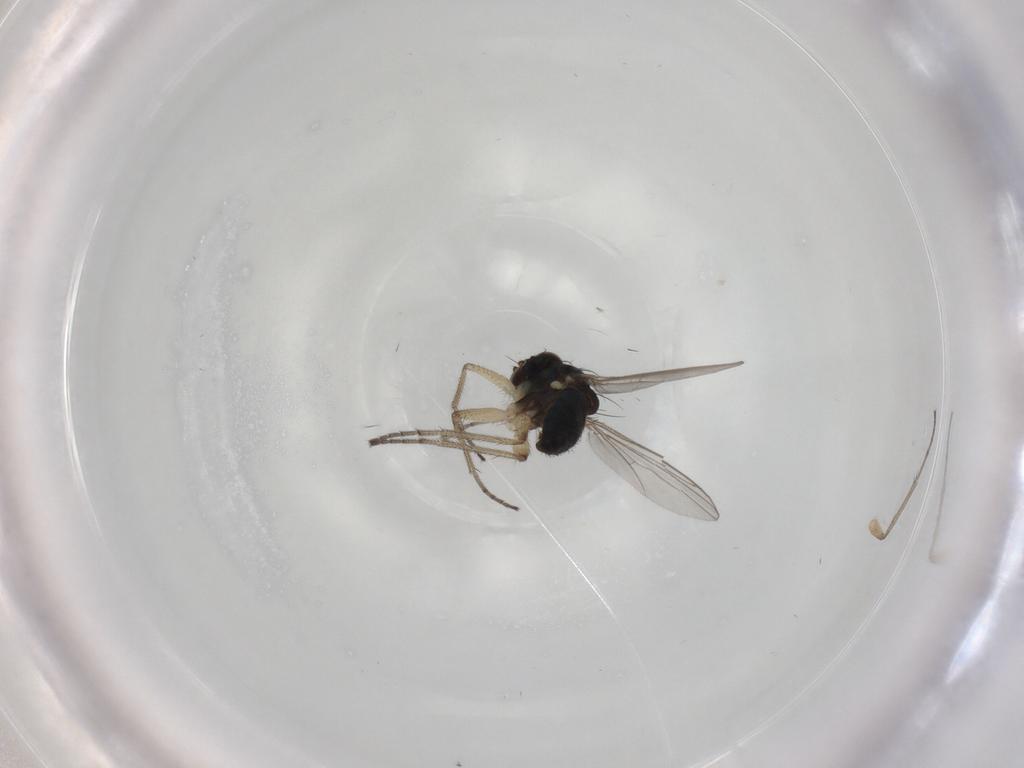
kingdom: Animalia
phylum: Arthropoda
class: Insecta
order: Diptera
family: Dolichopodidae
